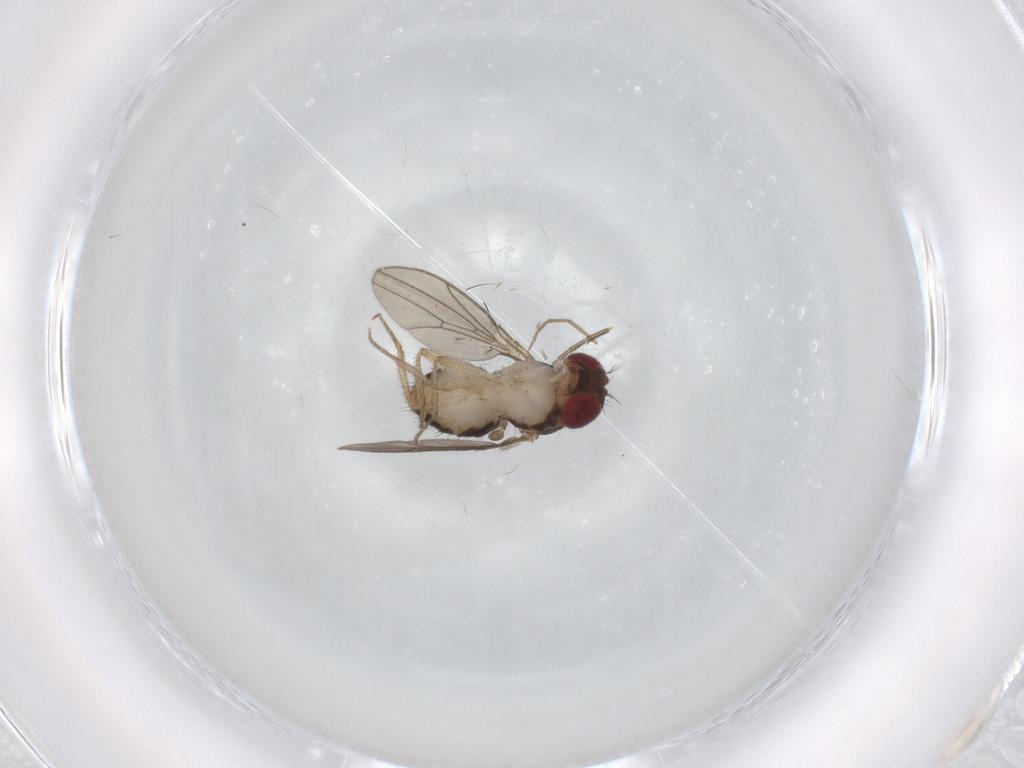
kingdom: Animalia
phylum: Arthropoda
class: Insecta
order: Diptera
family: Drosophilidae
